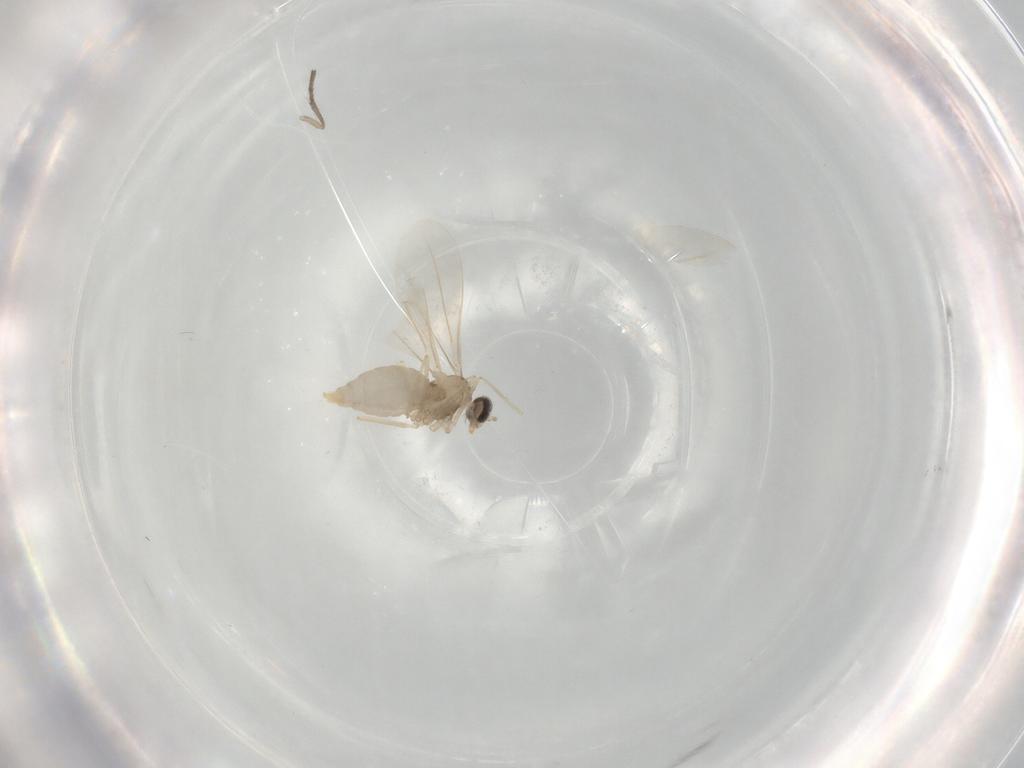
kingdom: Animalia
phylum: Arthropoda
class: Insecta
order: Diptera
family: Cecidomyiidae
